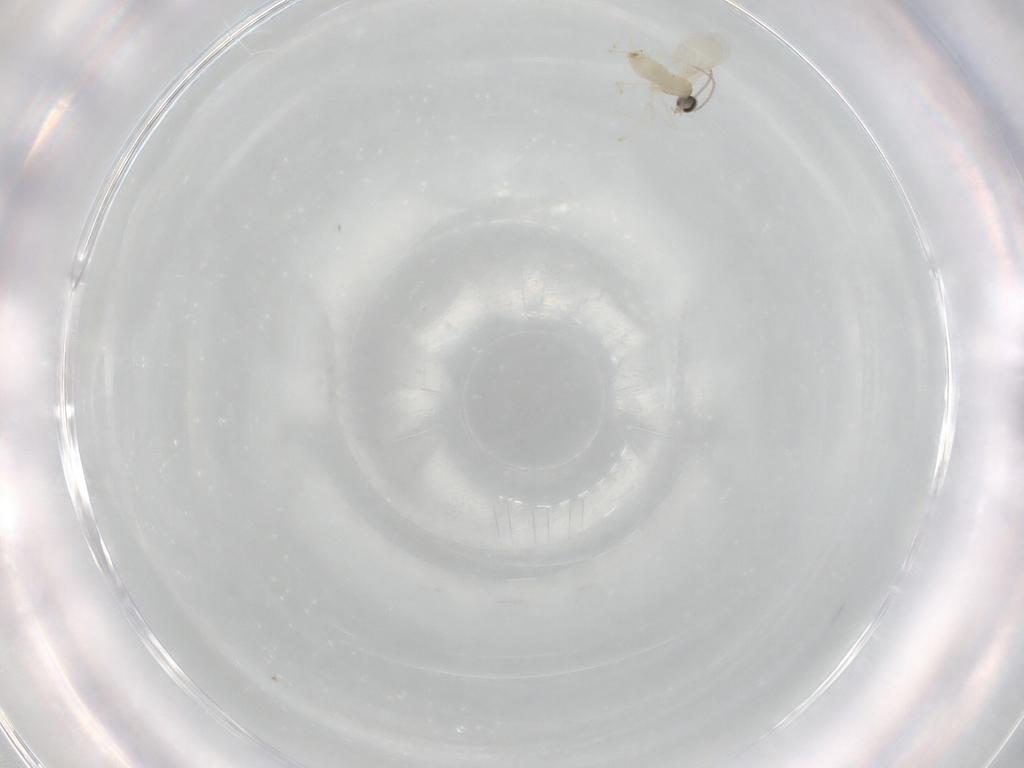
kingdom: Animalia
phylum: Arthropoda
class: Insecta
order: Diptera
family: Cecidomyiidae
